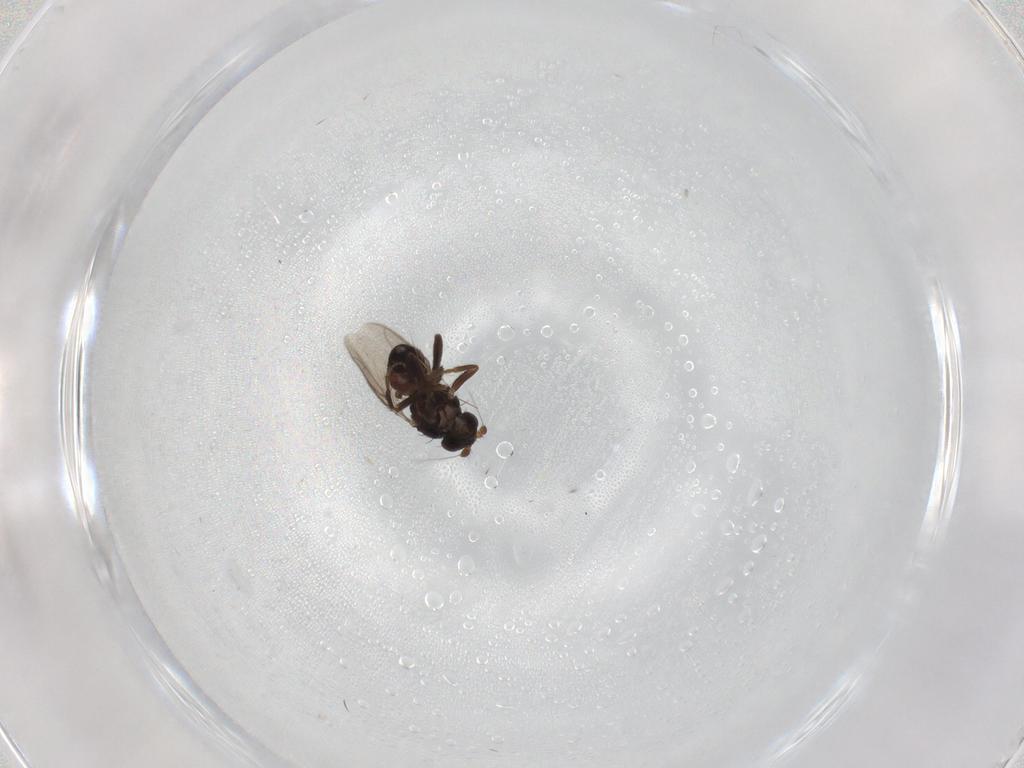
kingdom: Animalia
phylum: Arthropoda
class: Insecta
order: Diptera
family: Sphaeroceridae
